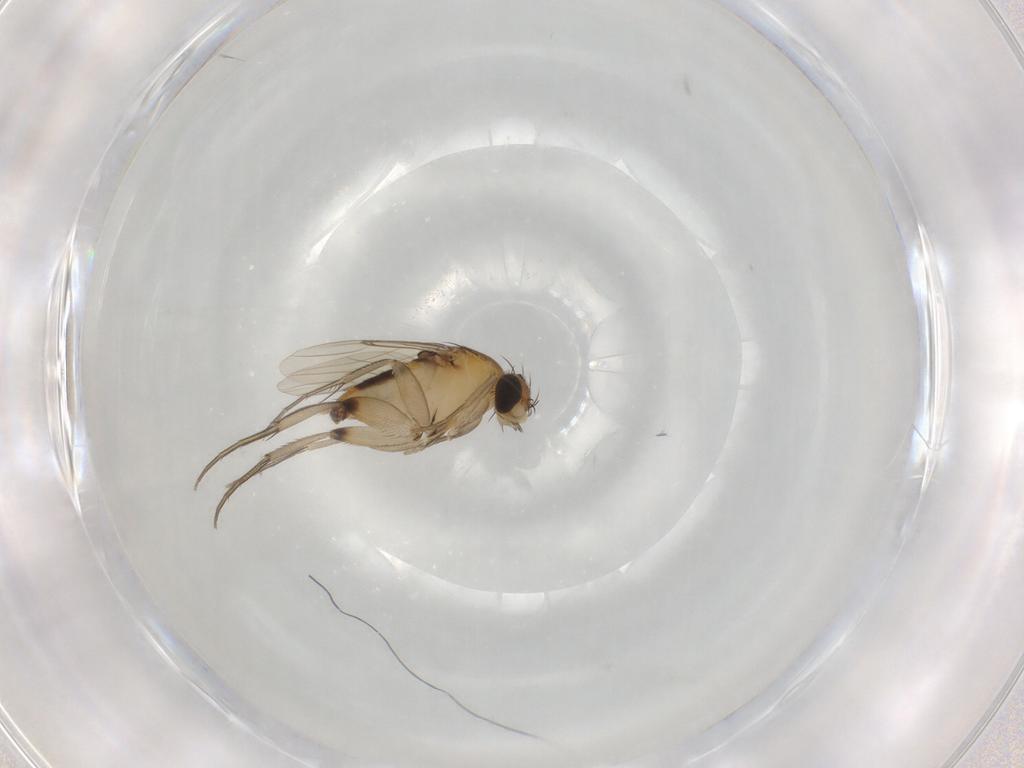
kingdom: Animalia
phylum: Arthropoda
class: Insecta
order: Diptera
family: Phoridae
